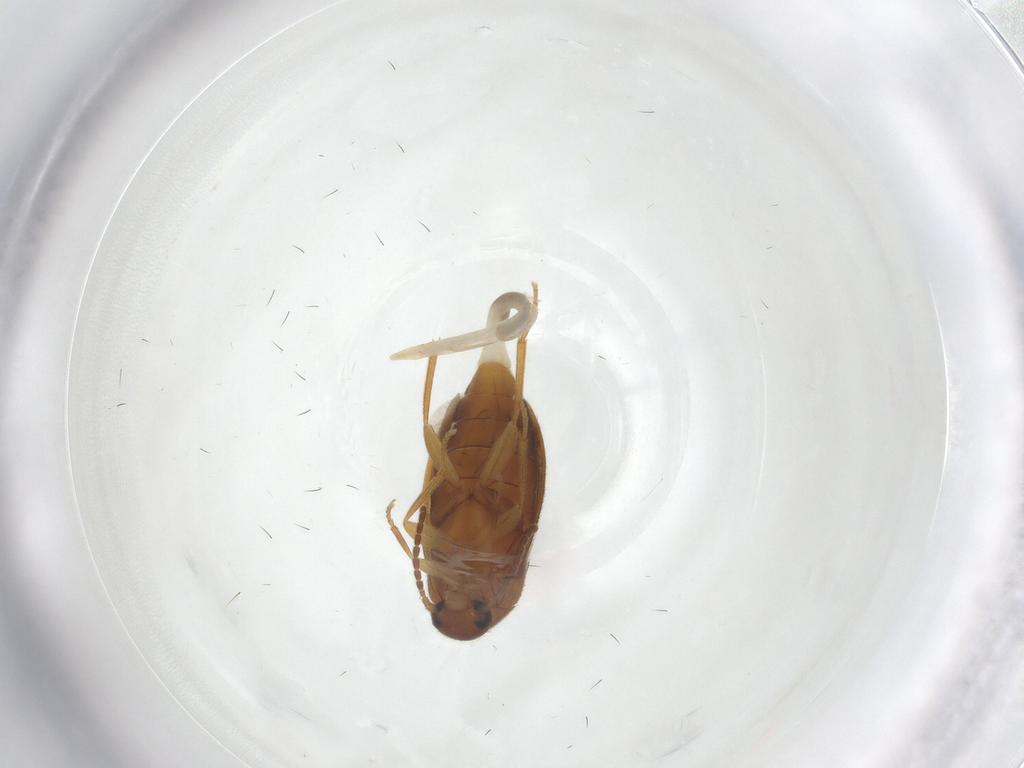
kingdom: Animalia
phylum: Arthropoda
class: Insecta
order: Coleoptera
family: Scraptiidae
